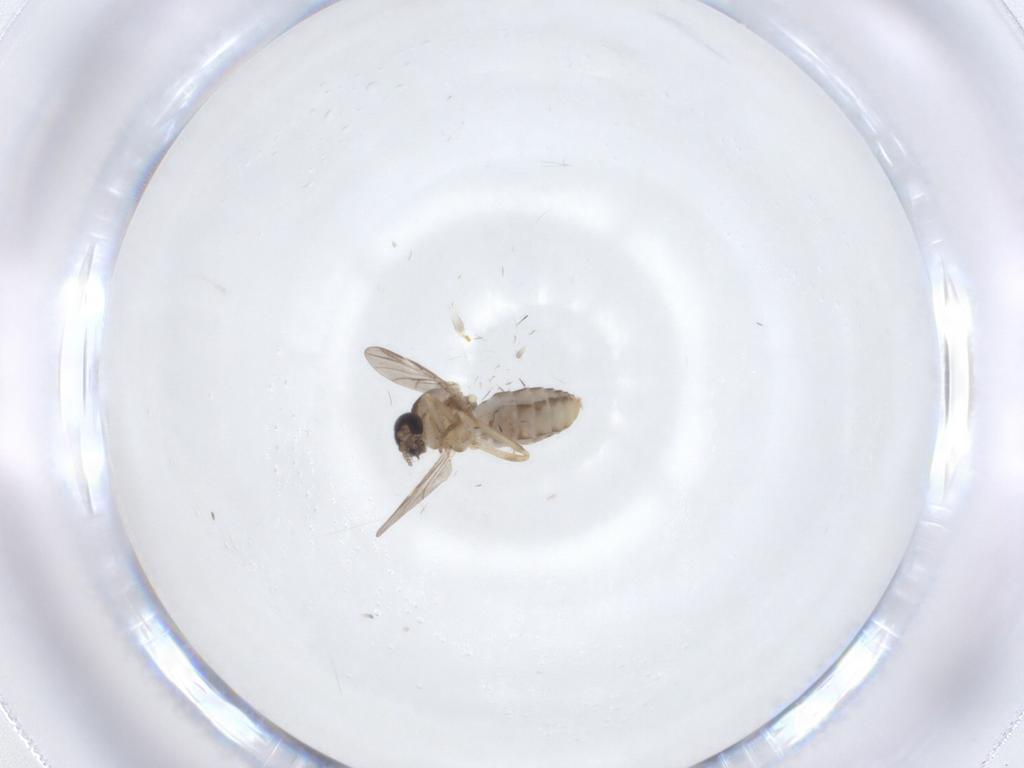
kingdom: Animalia
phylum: Arthropoda
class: Insecta
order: Diptera
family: Ceratopogonidae
